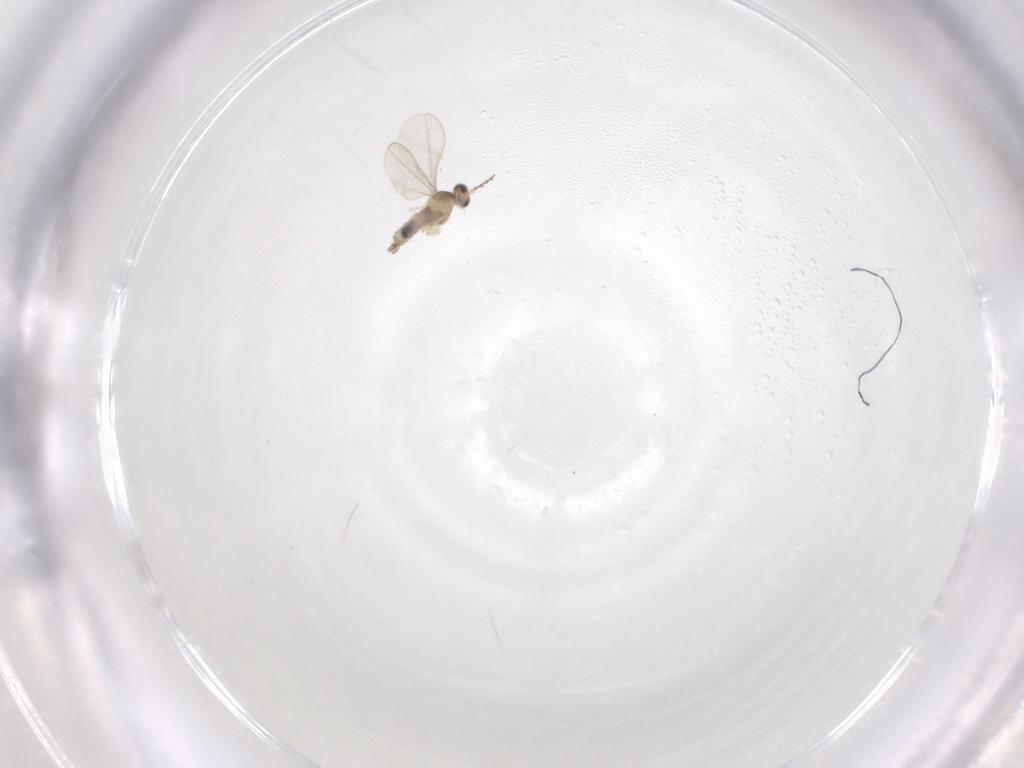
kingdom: Animalia
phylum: Arthropoda
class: Insecta
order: Diptera
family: Cecidomyiidae
